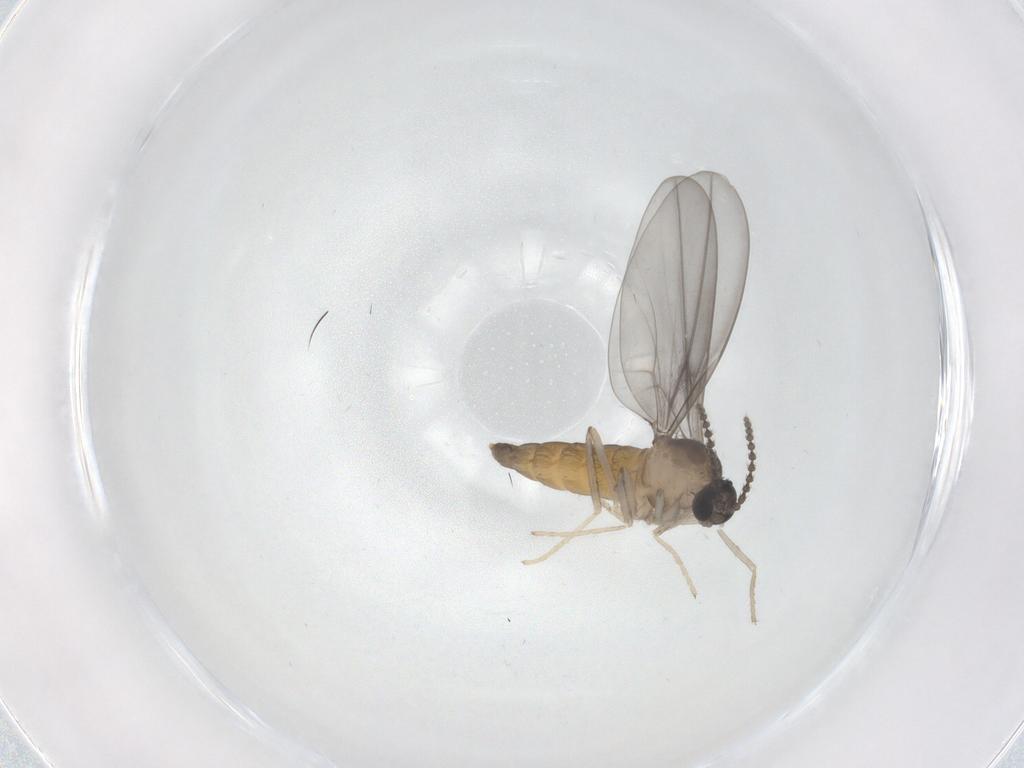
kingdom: Animalia
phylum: Arthropoda
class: Insecta
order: Diptera
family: Cecidomyiidae
